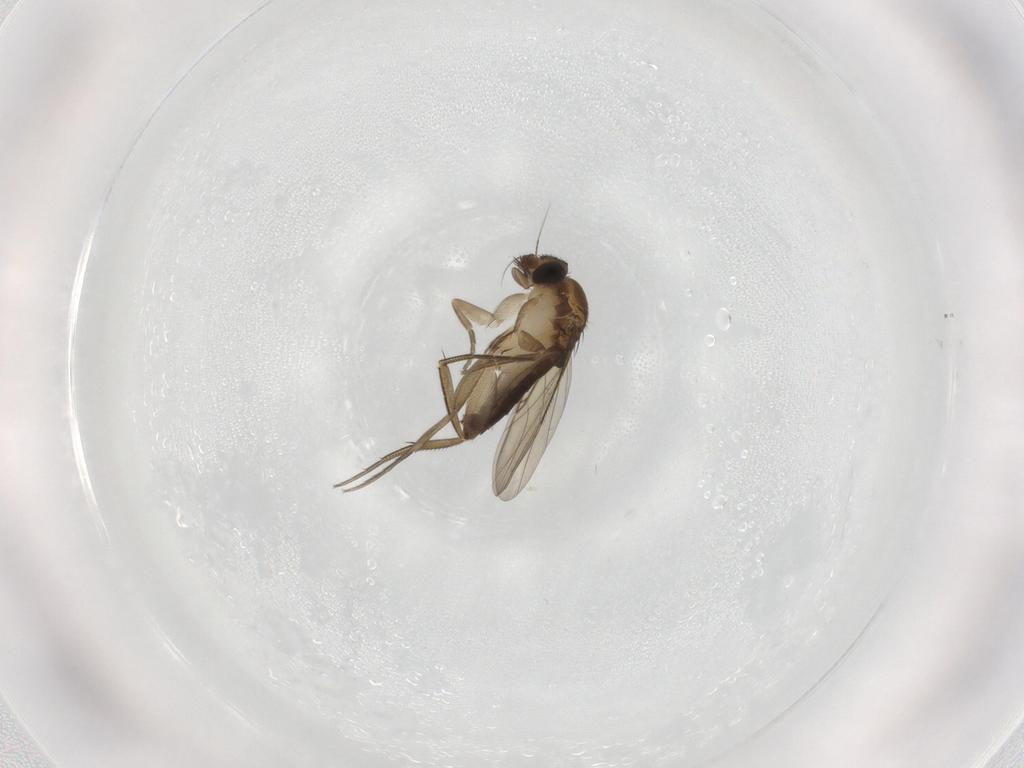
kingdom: Animalia
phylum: Arthropoda
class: Insecta
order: Diptera
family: Phoridae
